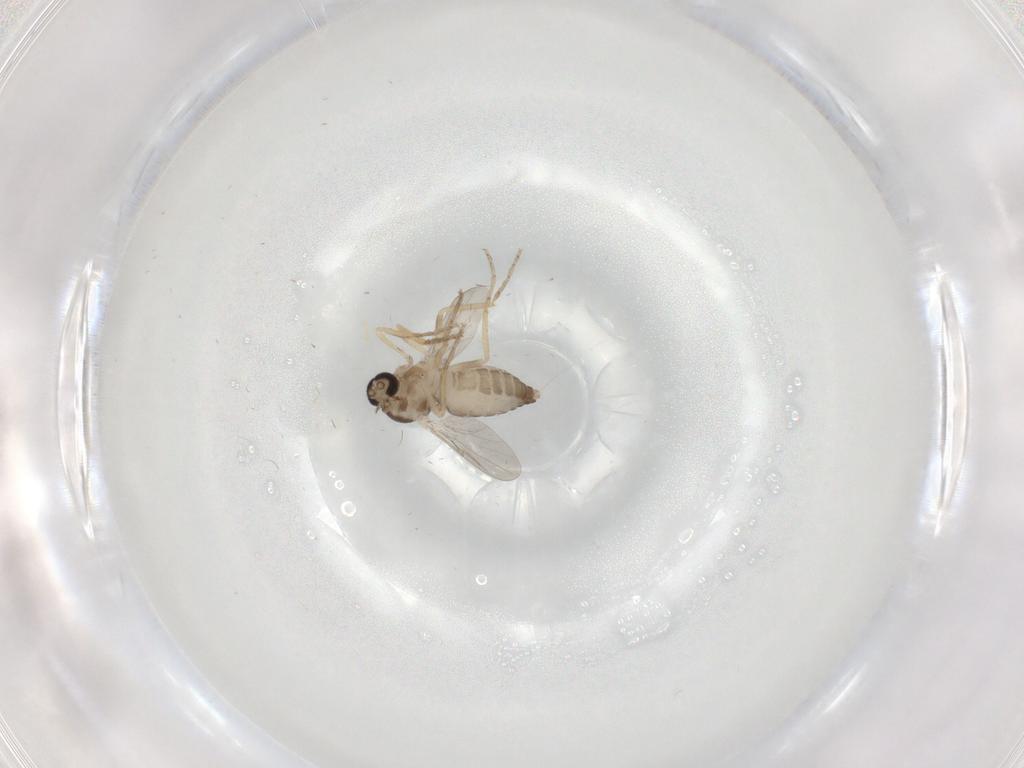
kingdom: Animalia
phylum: Arthropoda
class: Insecta
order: Diptera
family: Ceratopogonidae
